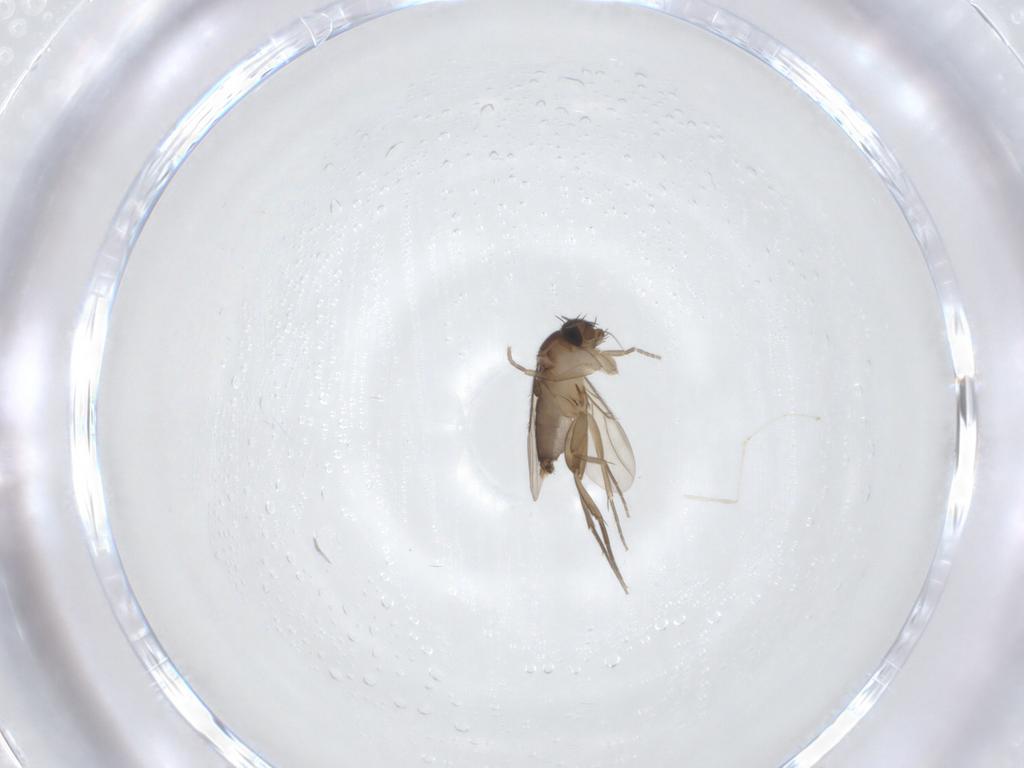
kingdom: Animalia
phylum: Arthropoda
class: Insecta
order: Diptera
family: Cecidomyiidae
